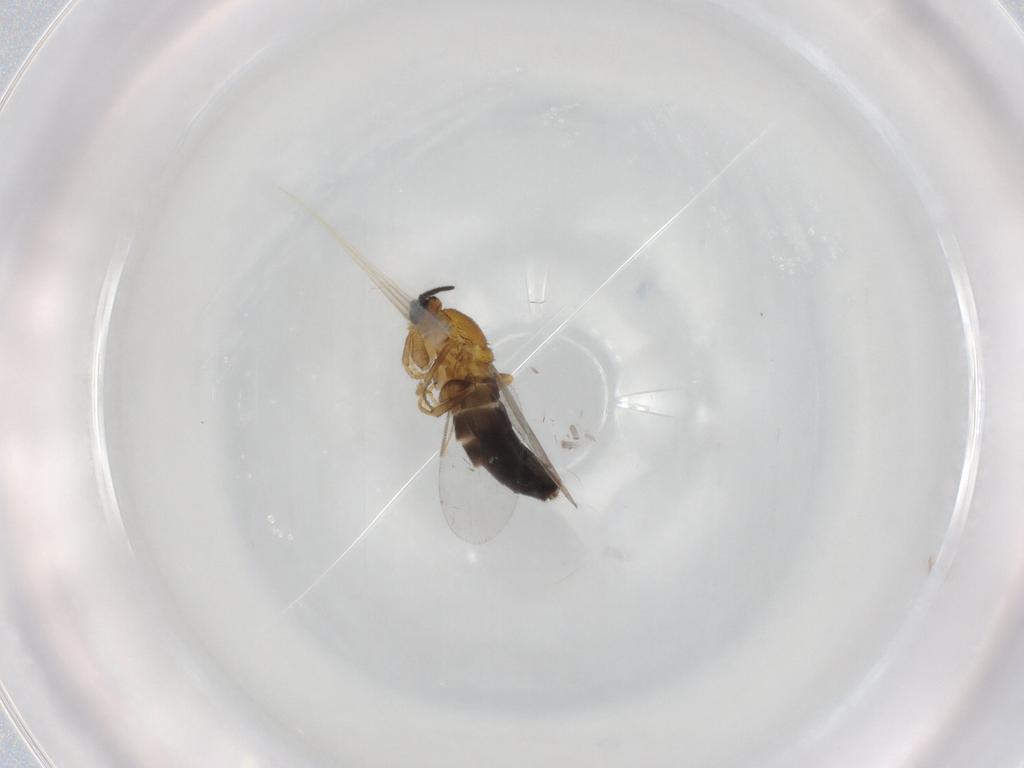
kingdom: Animalia
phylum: Arthropoda
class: Insecta
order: Diptera
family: Scatopsidae
